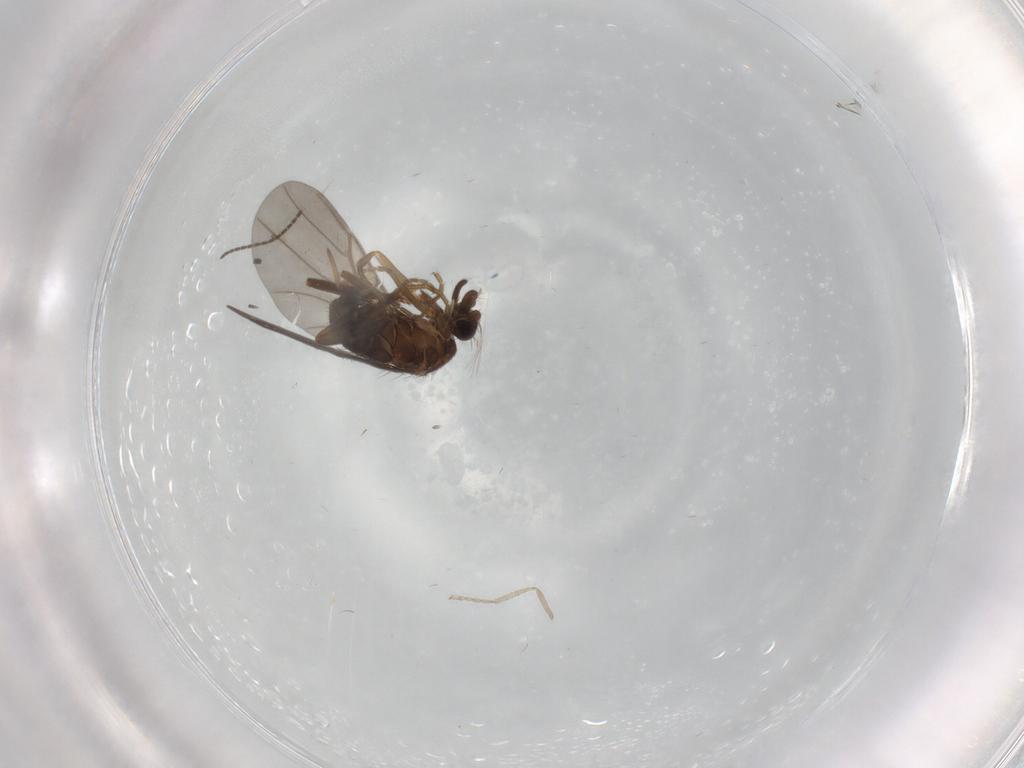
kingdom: Animalia
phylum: Arthropoda
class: Insecta
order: Diptera
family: Phoridae
